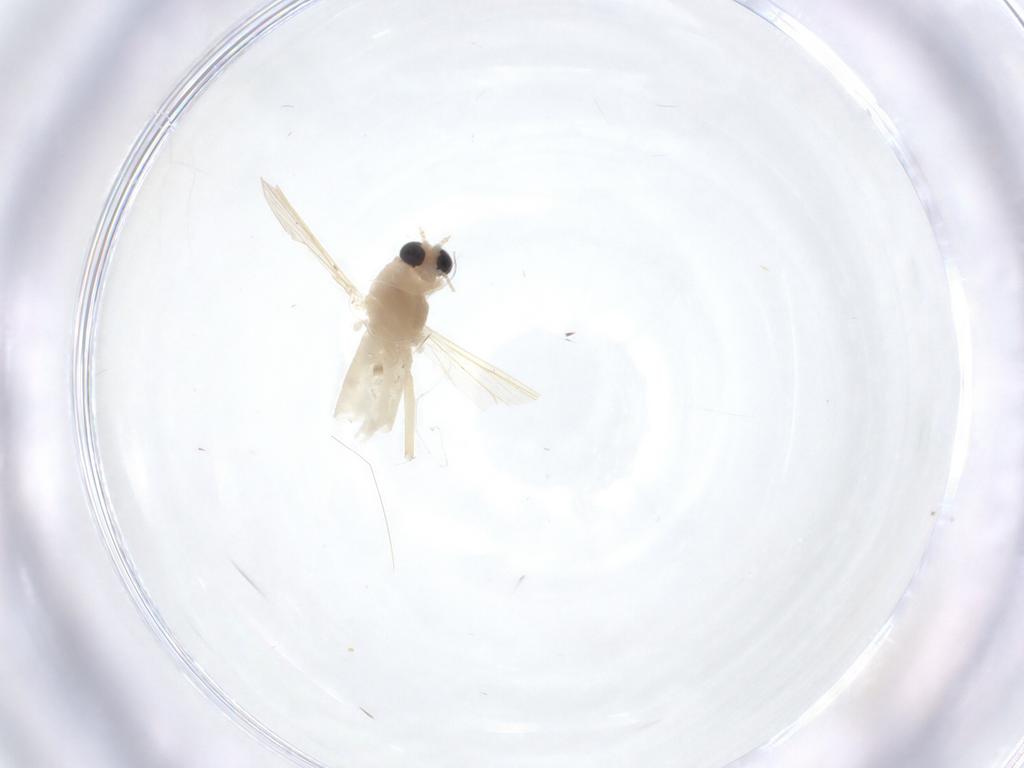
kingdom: Animalia
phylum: Arthropoda
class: Insecta
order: Diptera
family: Chironomidae
